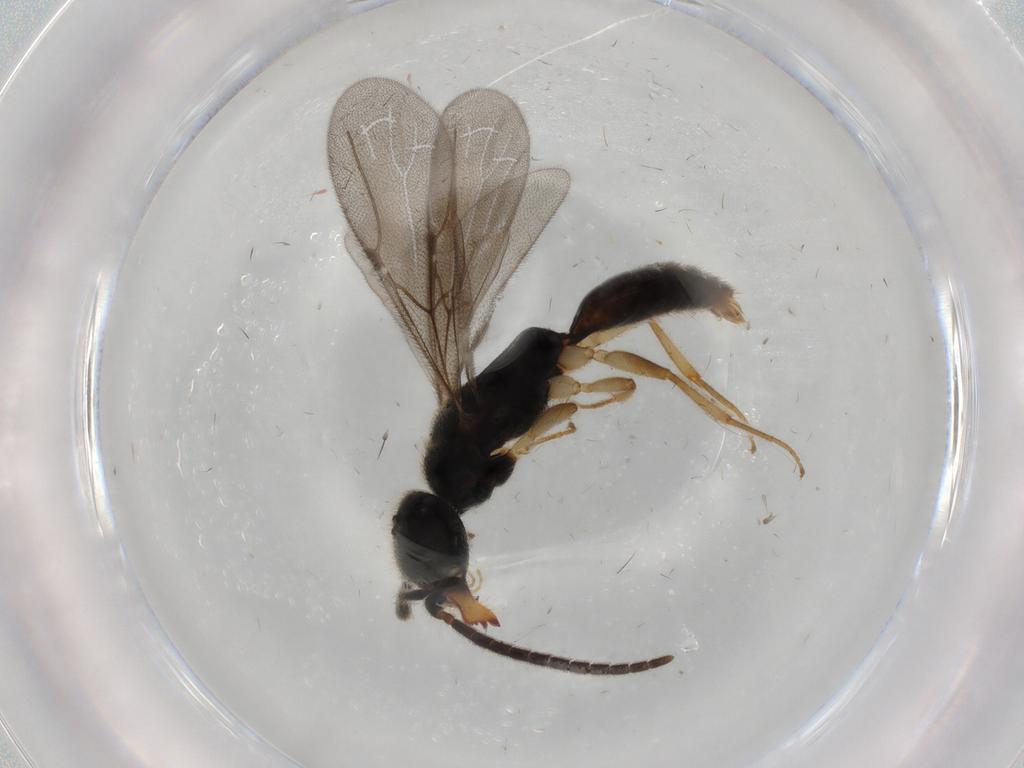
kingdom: Animalia
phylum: Arthropoda
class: Insecta
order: Hymenoptera
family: Bethylidae
